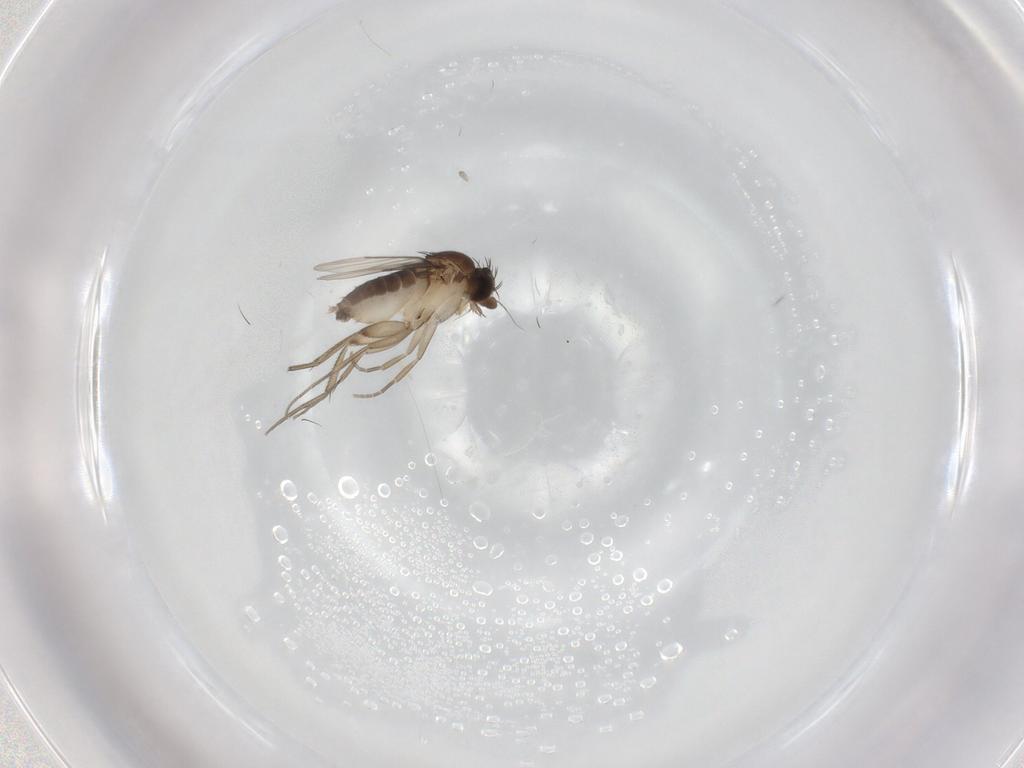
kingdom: Animalia
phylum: Arthropoda
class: Insecta
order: Diptera
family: Phoridae
